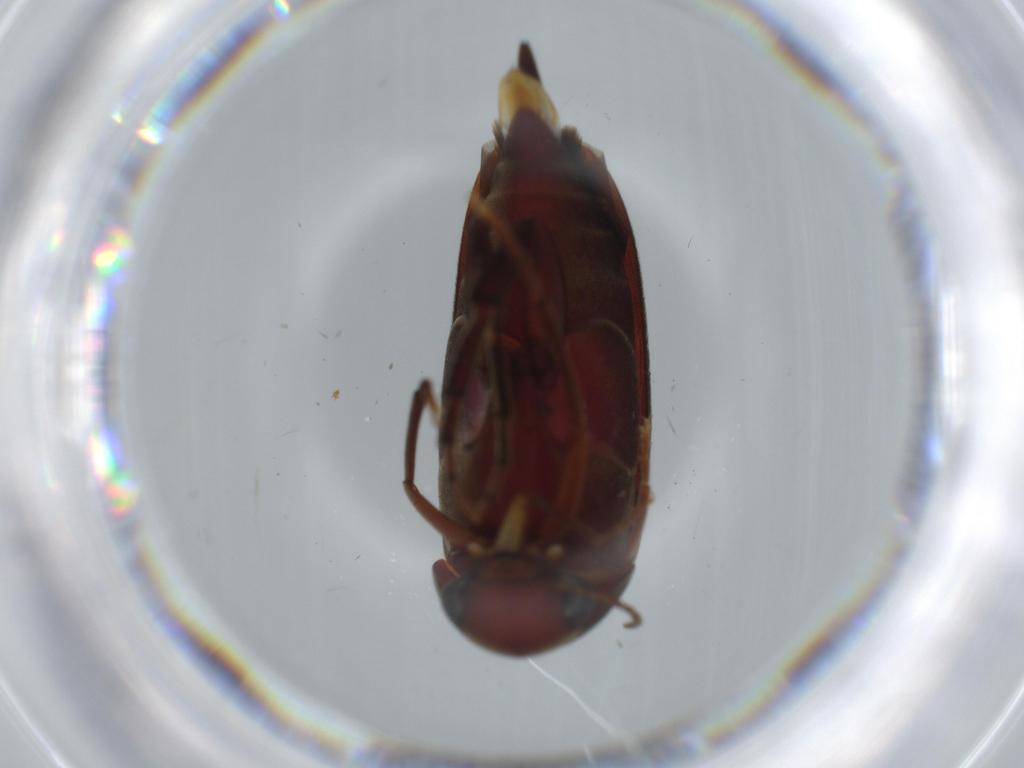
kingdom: Animalia
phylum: Arthropoda
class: Insecta
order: Coleoptera
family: Mordellidae
